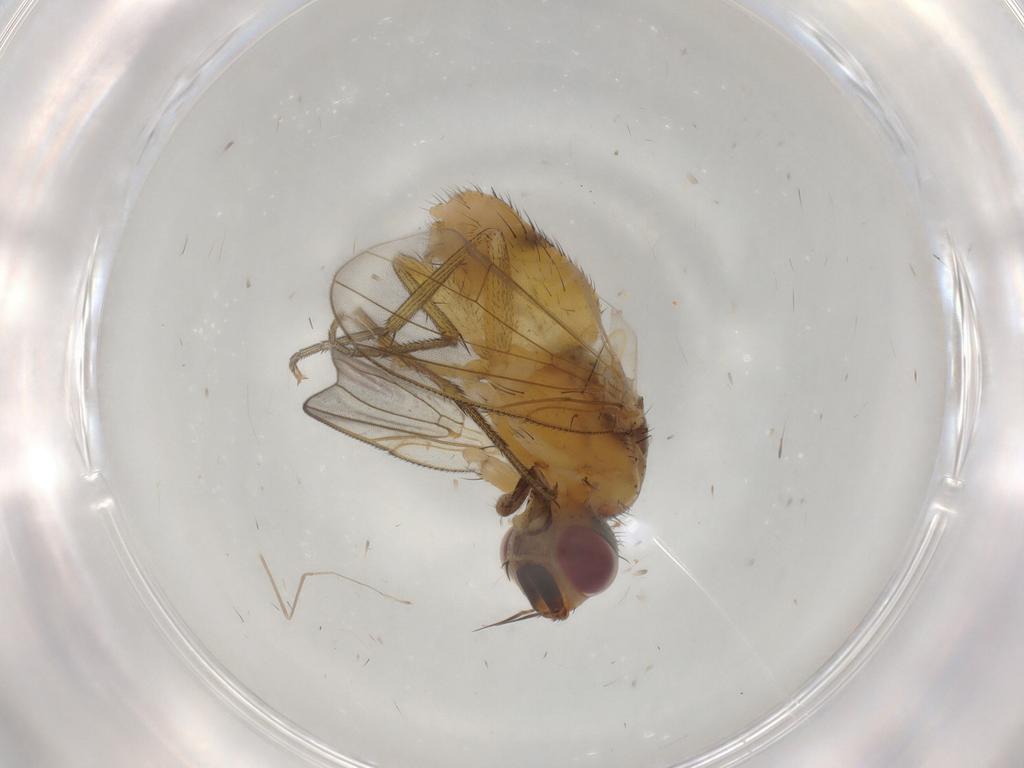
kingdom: Animalia
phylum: Arthropoda
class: Insecta
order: Diptera
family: Muscidae
